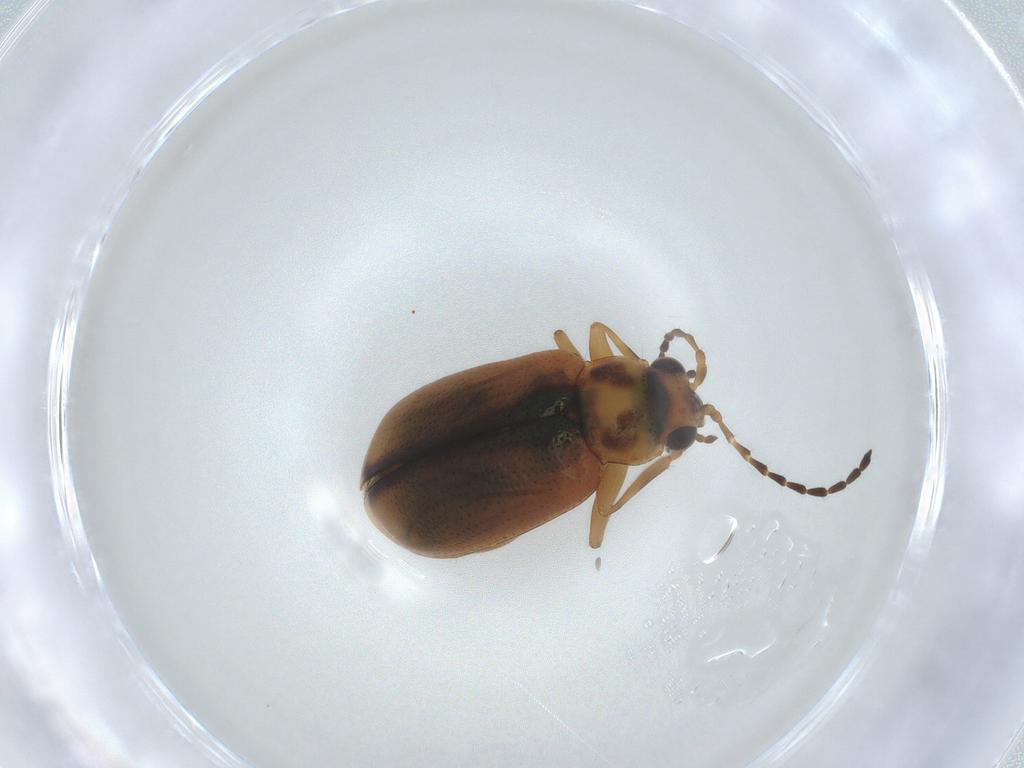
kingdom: Animalia
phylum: Arthropoda
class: Insecta
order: Coleoptera
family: Chrysomelidae
